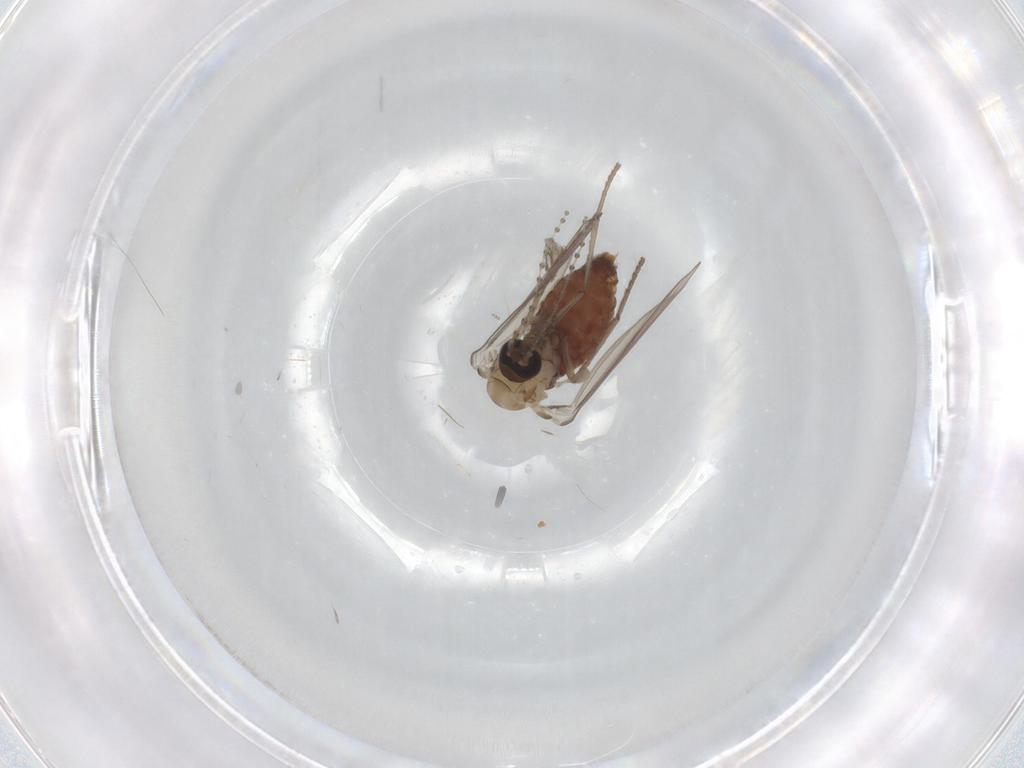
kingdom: Animalia
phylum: Arthropoda
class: Insecta
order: Diptera
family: Psychodidae
